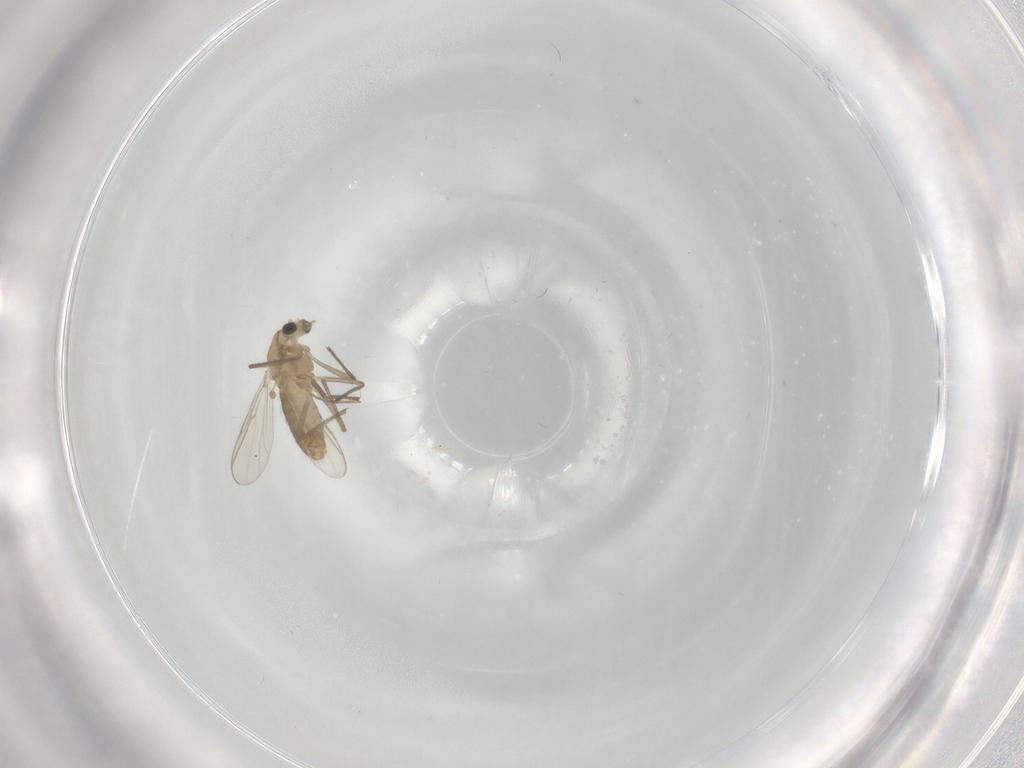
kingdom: Animalia
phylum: Arthropoda
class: Insecta
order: Diptera
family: Chironomidae
